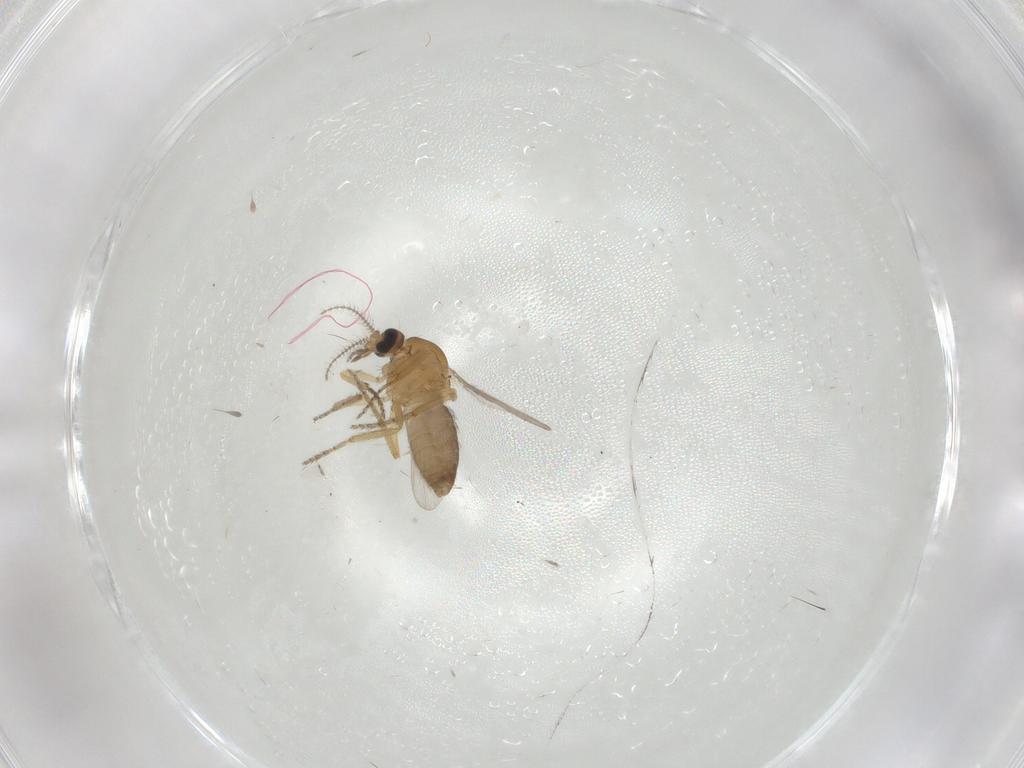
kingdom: Animalia
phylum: Arthropoda
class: Insecta
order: Diptera
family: Ceratopogonidae
